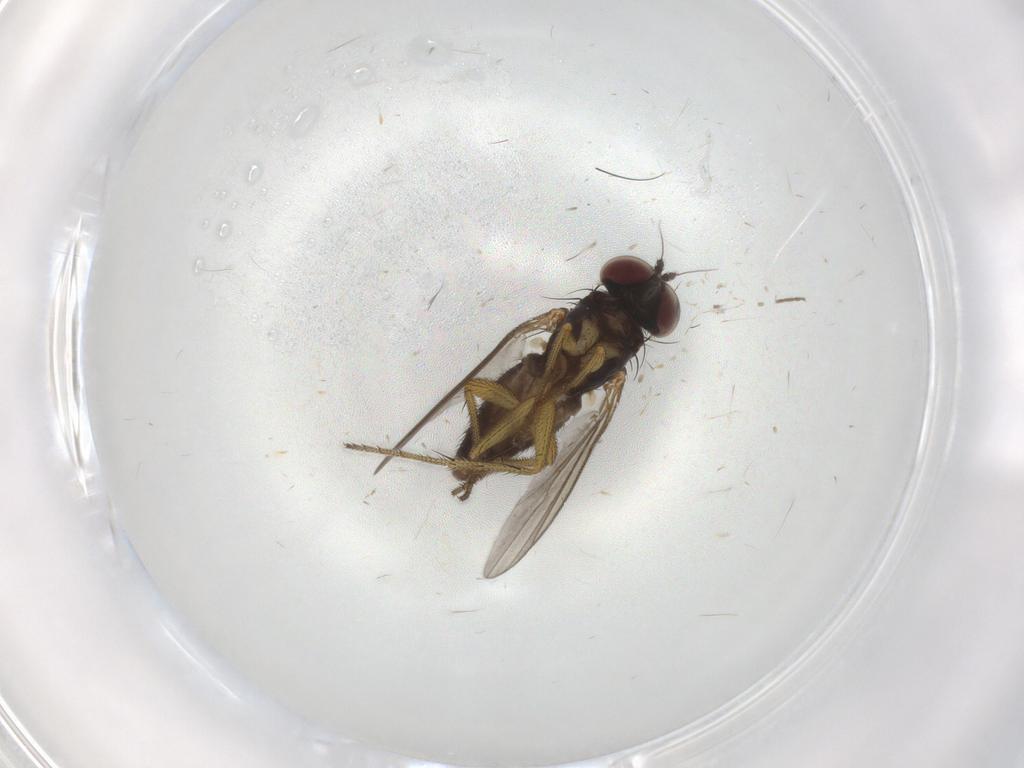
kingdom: Animalia
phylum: Arthropoda
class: Insecta
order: Diptera
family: Dolichopodidae
